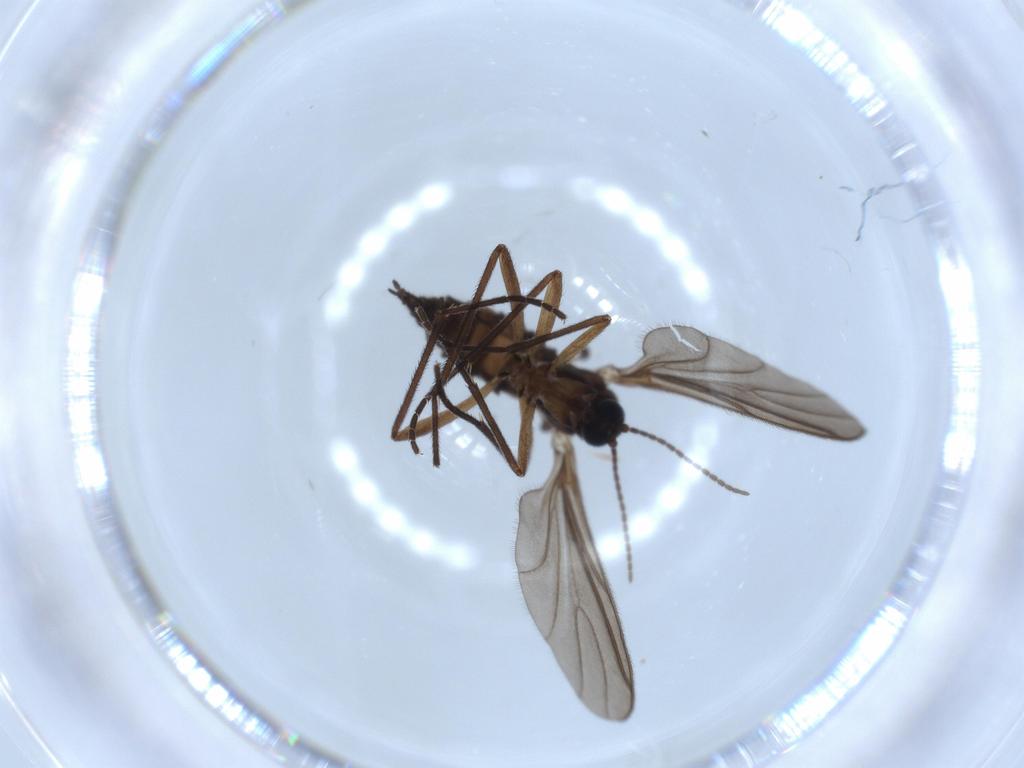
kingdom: Animalia
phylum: Arthropoda
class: Insecta
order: Diptera
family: Sciaridae
